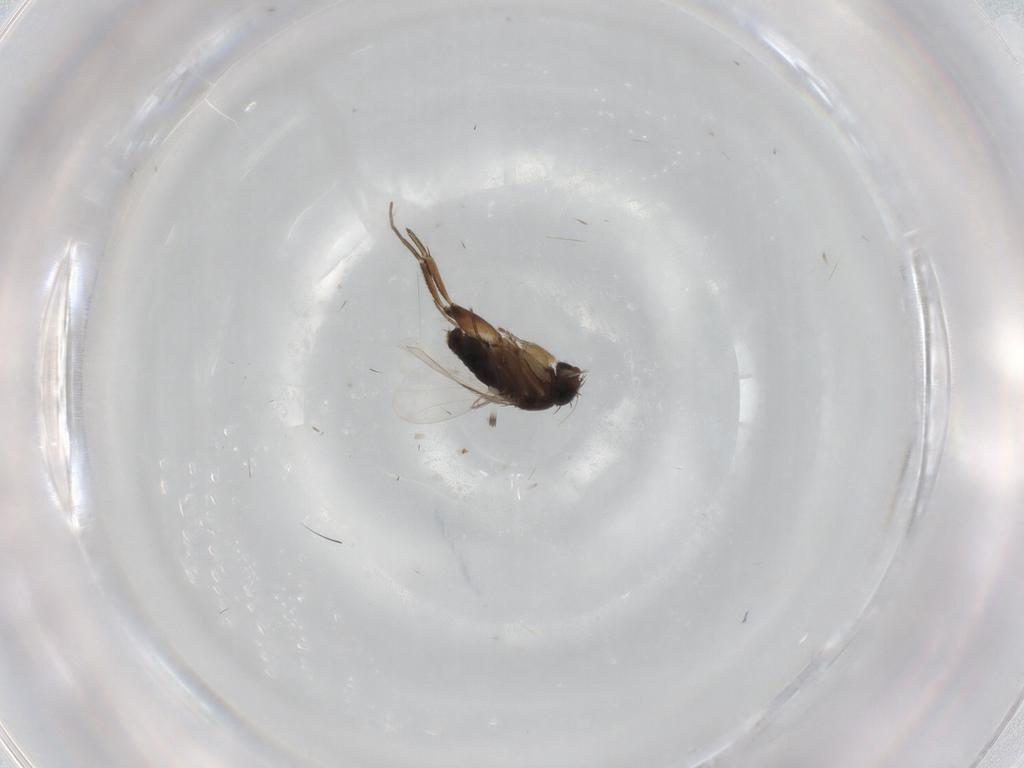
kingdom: Animalia
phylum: Arthropoda
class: Insecta
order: Diptera
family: Phoridae
